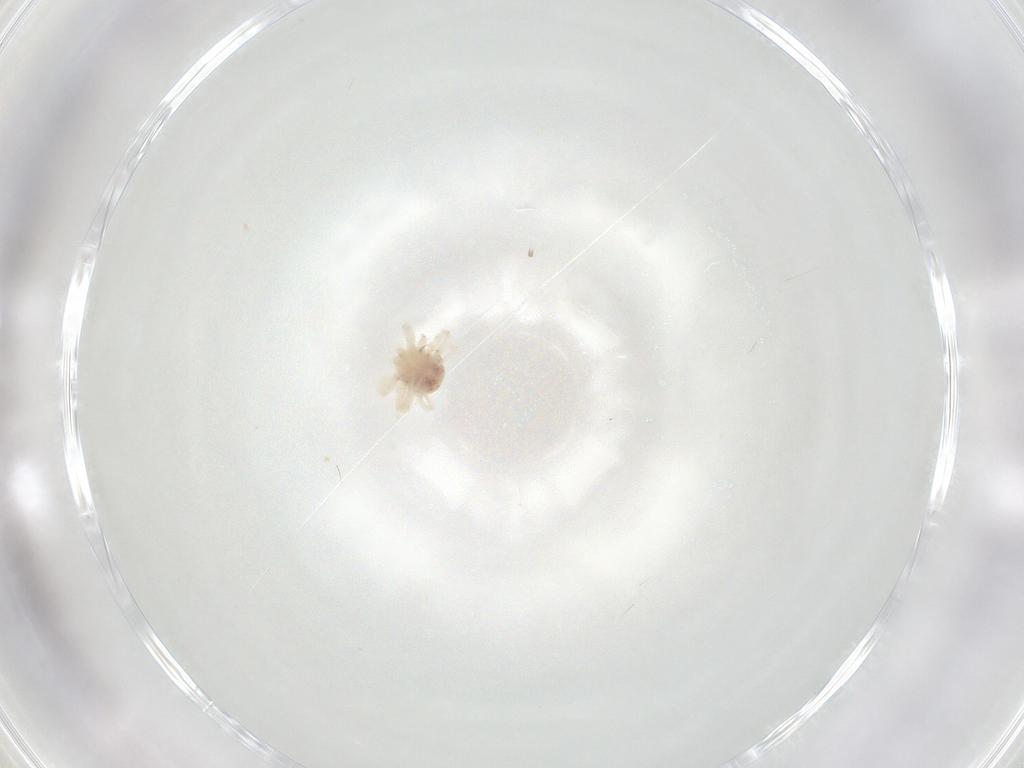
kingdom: Animalia
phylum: Arthropoda
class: Arachnida
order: Trombidiformes
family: Anystidae
